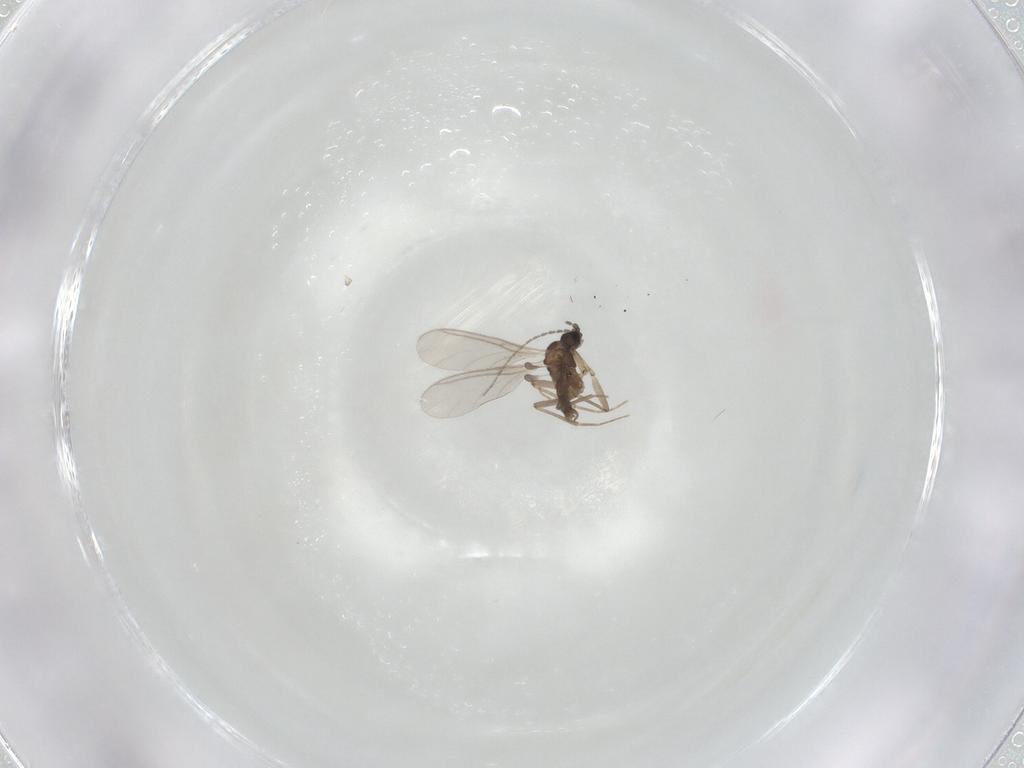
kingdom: Animalia
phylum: Arthropoda
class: Insecta
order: Diptera
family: Sciaridae
